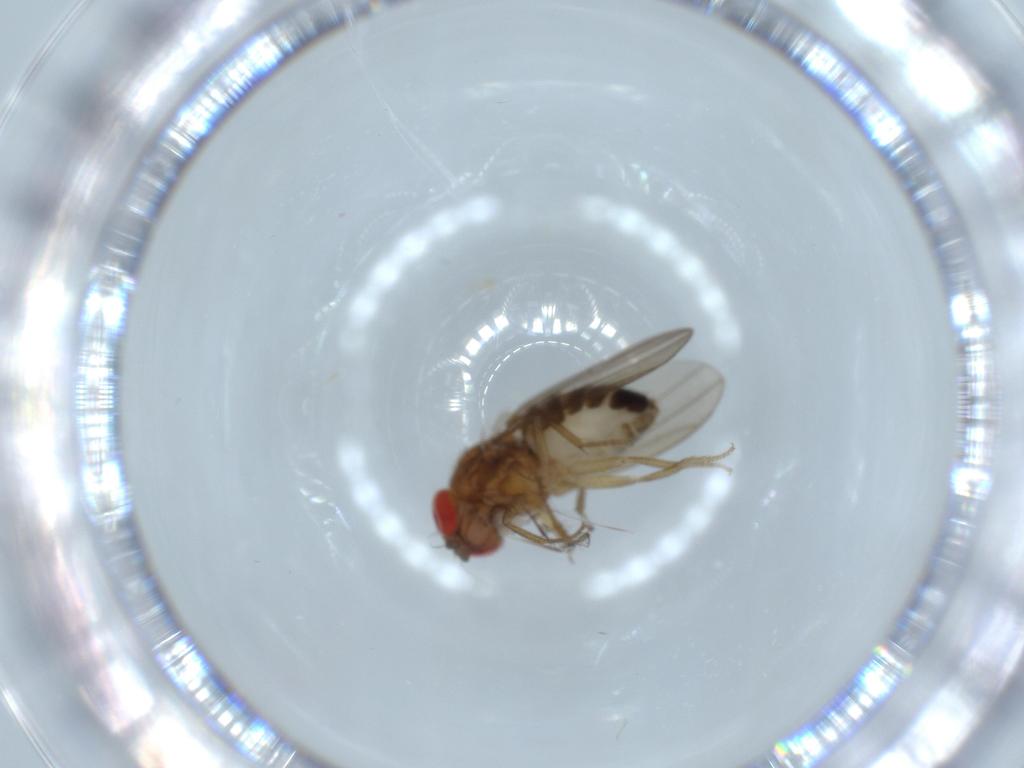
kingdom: Animalia
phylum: Arthropoda
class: Insecta
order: Diptera
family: Drosophilidae
